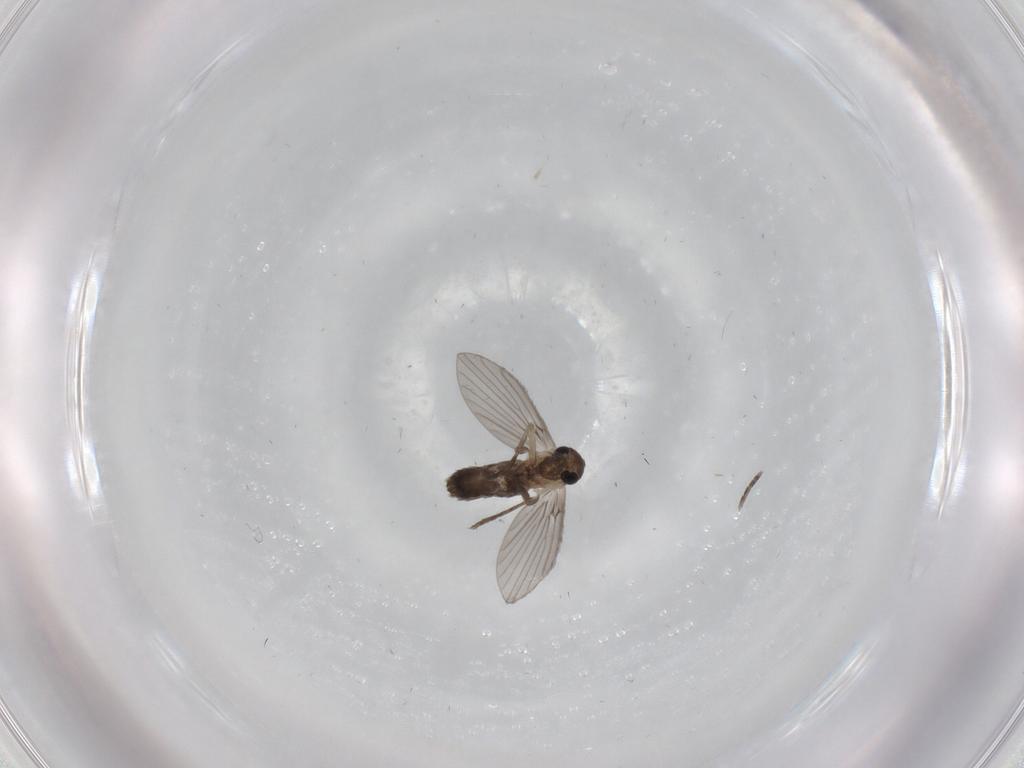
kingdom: Animalia
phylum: Arthropoda
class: Insecta
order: Diptera
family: Psychodidae
